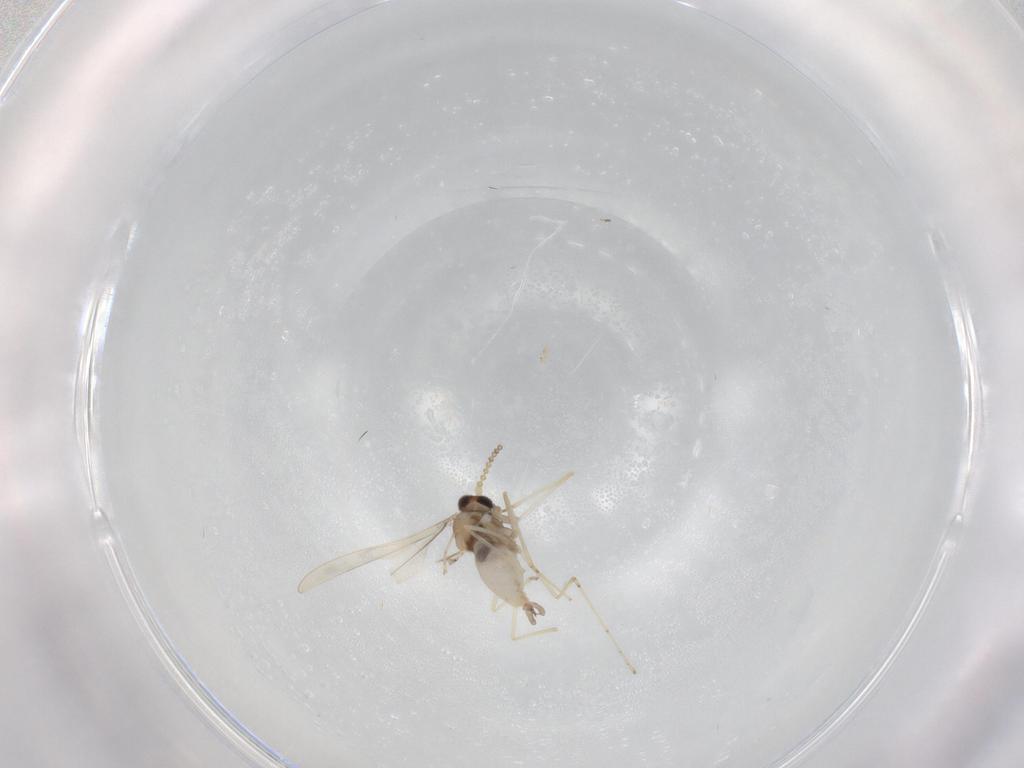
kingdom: Animalia
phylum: Arthropoda
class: Insecta
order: Diptera
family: Cecidomyiidae
